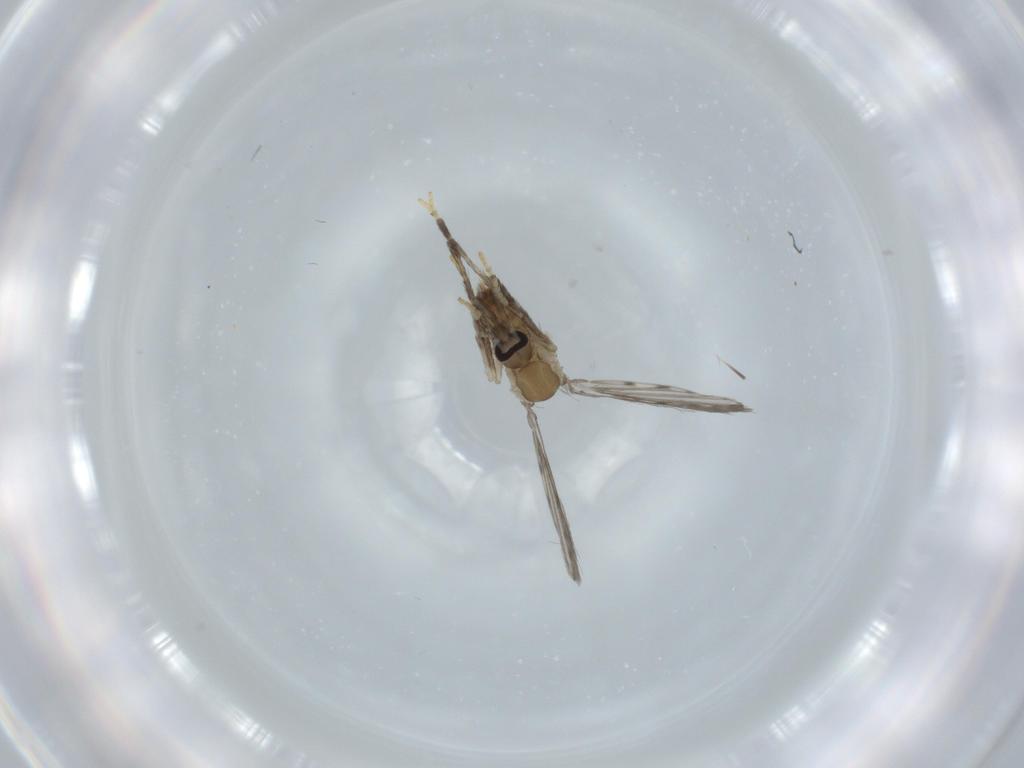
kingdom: Animalia
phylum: Arthropoda
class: Insecta
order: Diptera
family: Psychodidae
